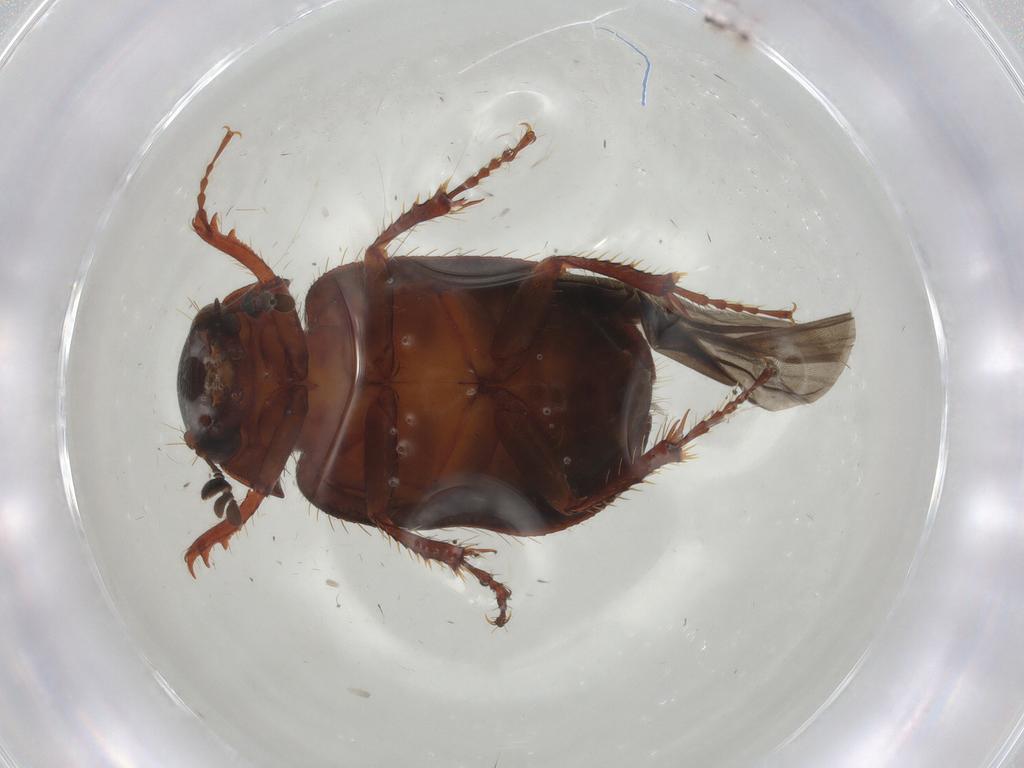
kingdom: Animalia
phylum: Arthropoda
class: Insecta
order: Coleoptera
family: Hybosoridae
